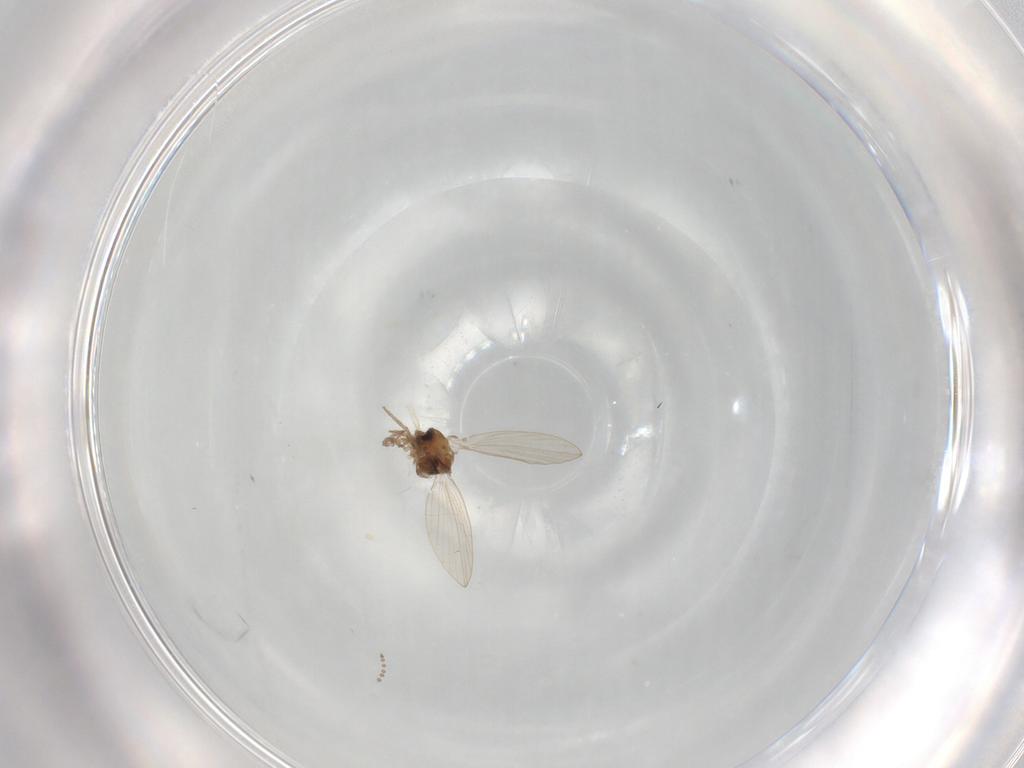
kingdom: Animalia
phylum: Arthropoda
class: Insecta
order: Diptera
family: Psychodidae
